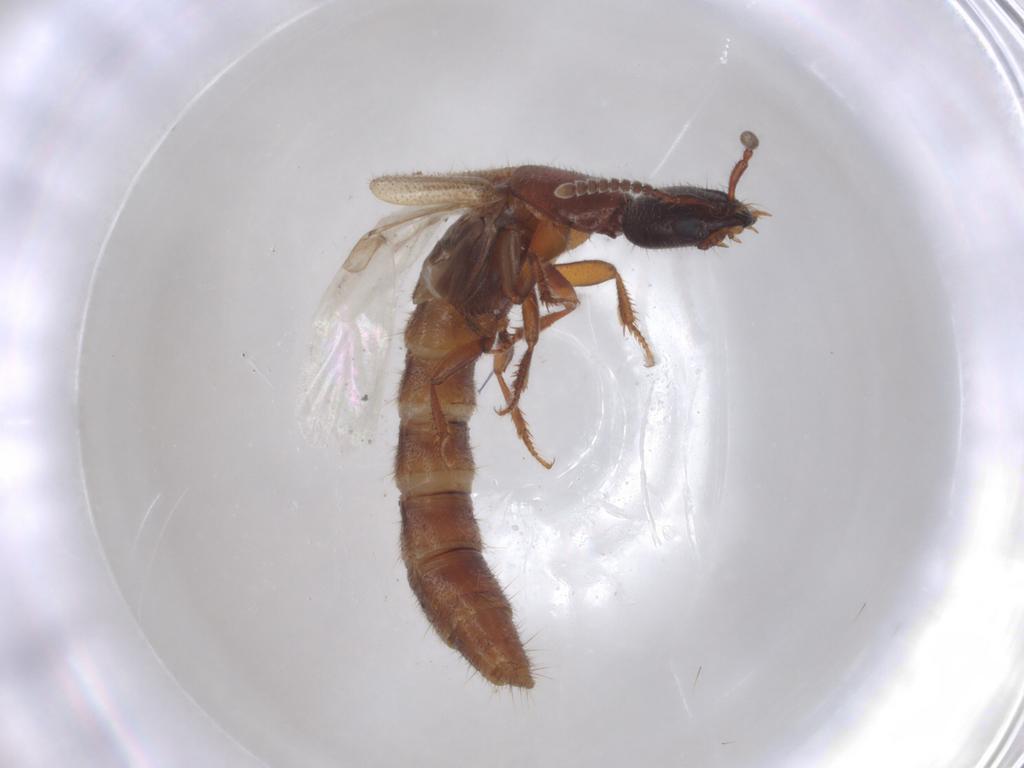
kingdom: Animalia
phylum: Arthropoda
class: Insecta
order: Coleoptera
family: Staphylinidae
